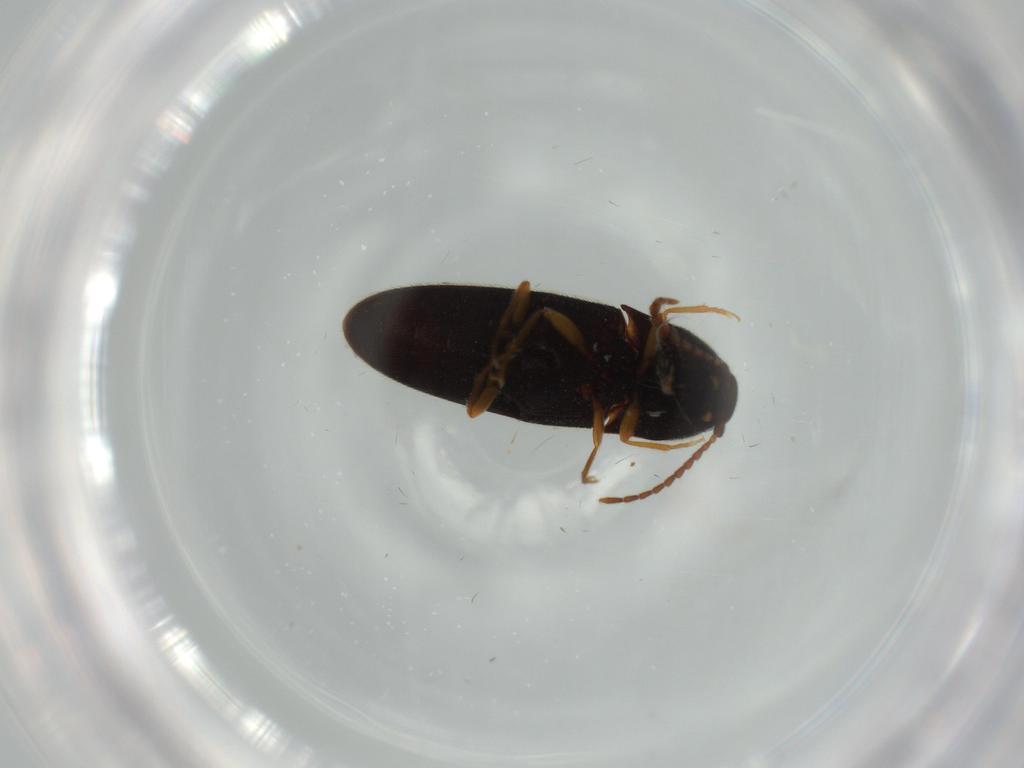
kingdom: Animalia
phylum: Arthropoda
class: Insecta
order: Coleoptera
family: Staphylinidae
